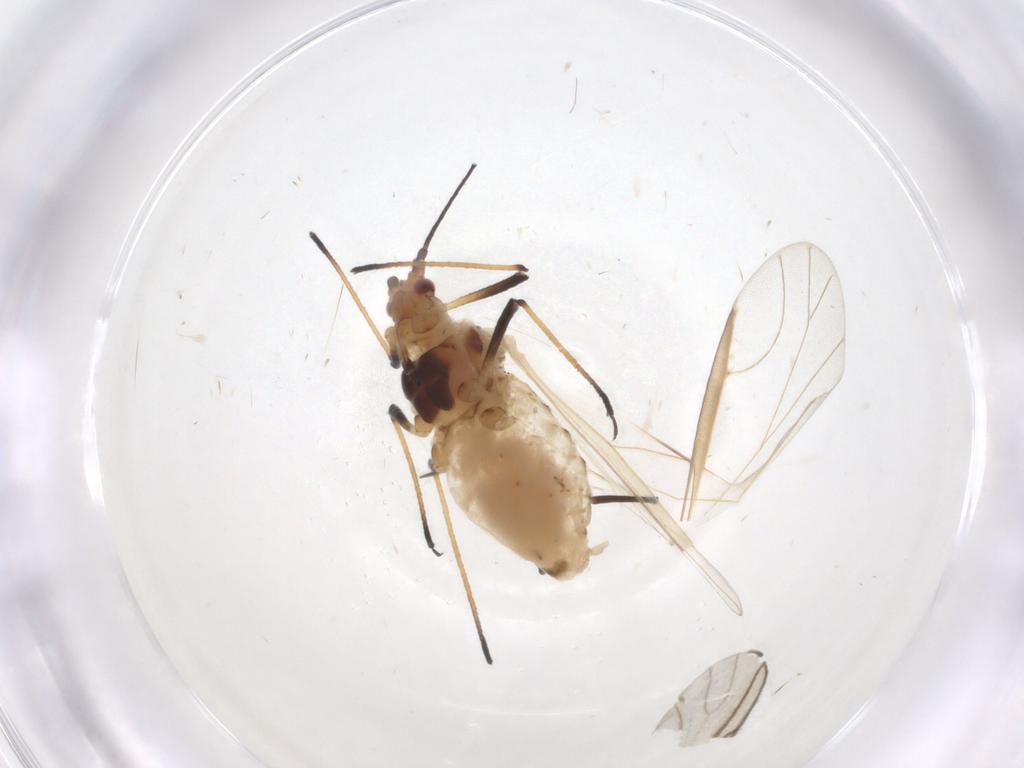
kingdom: Animalia
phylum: Arthropoda
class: Insecta
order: Hemiptera
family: Aphididae
